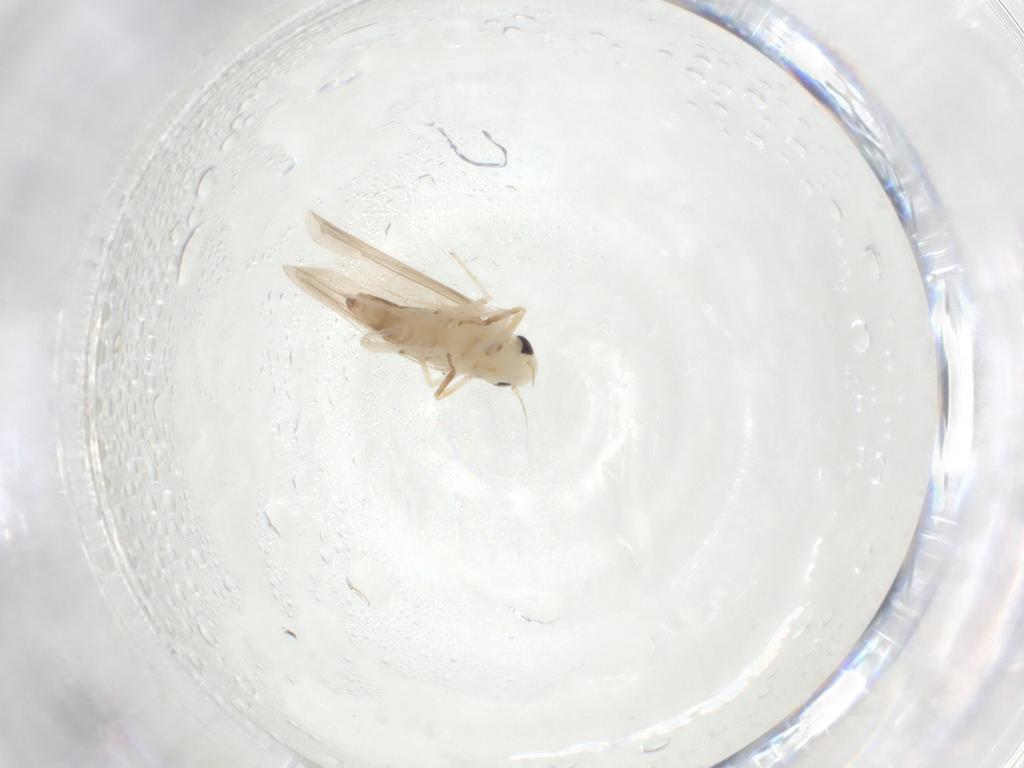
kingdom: Animalia
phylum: Arthropoda
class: Insecta
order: Hemiptera
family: Cicadellidae
